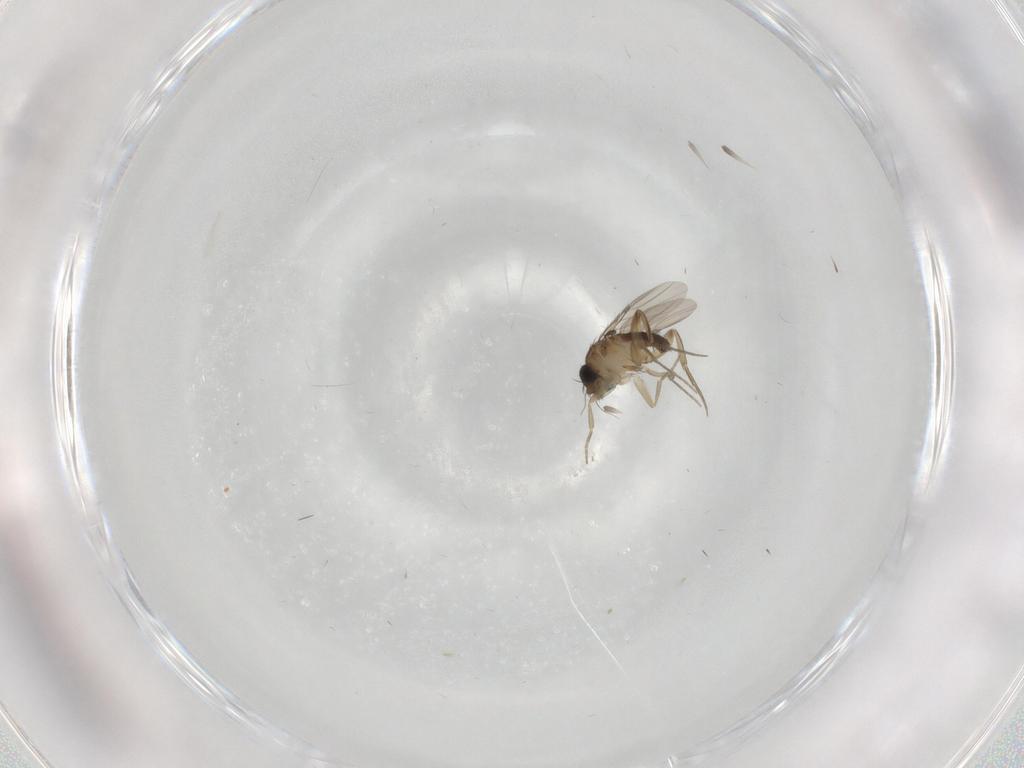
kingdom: Animalia
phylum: Arthropoda
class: Insecta
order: Diptera
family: Phoridae
